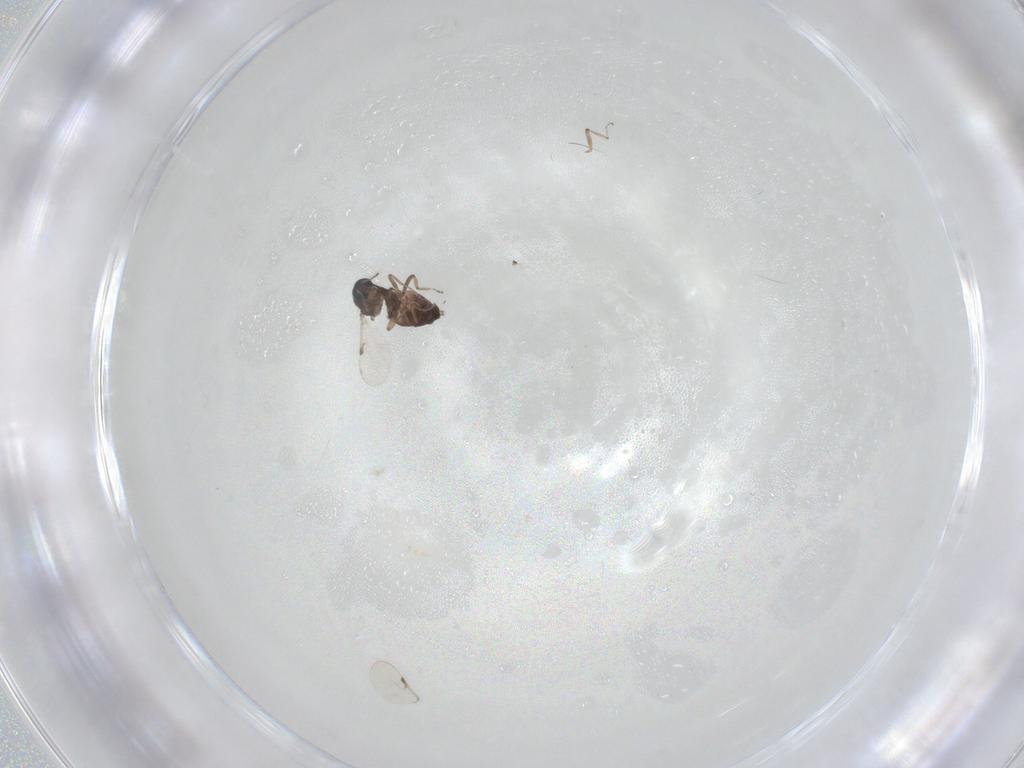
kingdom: Animalia
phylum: Arthropoda
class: Insecta
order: Diptera
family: Ceratopogonidae
